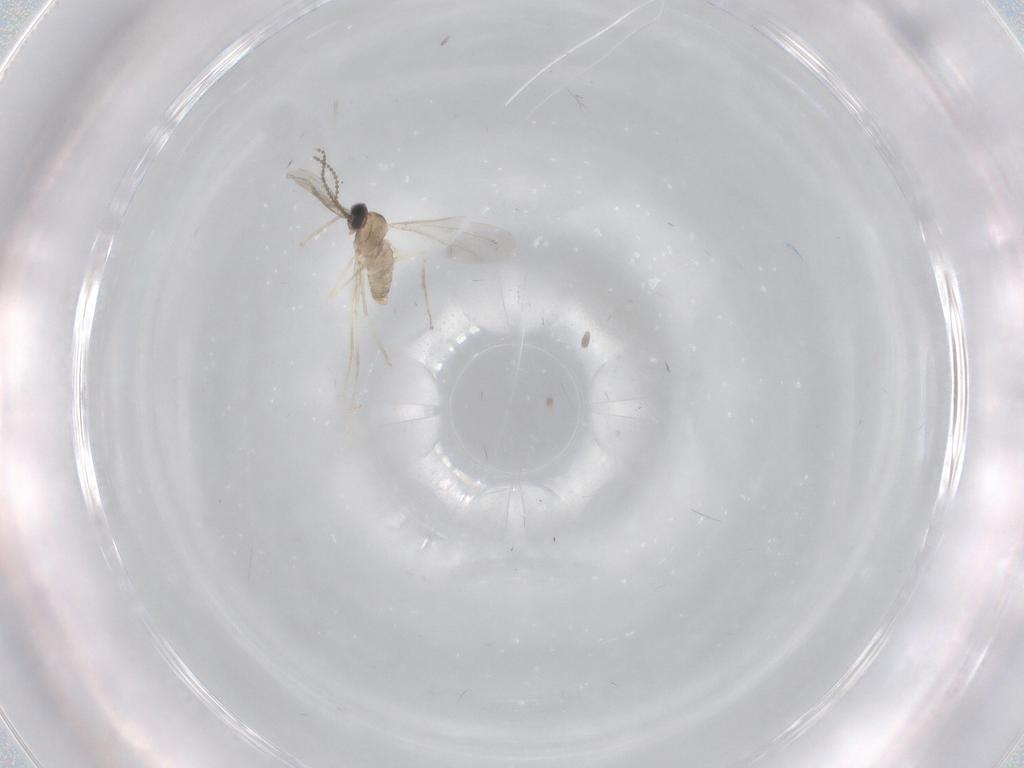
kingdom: Animalia
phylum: Arthropoda
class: Insecta
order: Diptera
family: Cecidomyiidae
